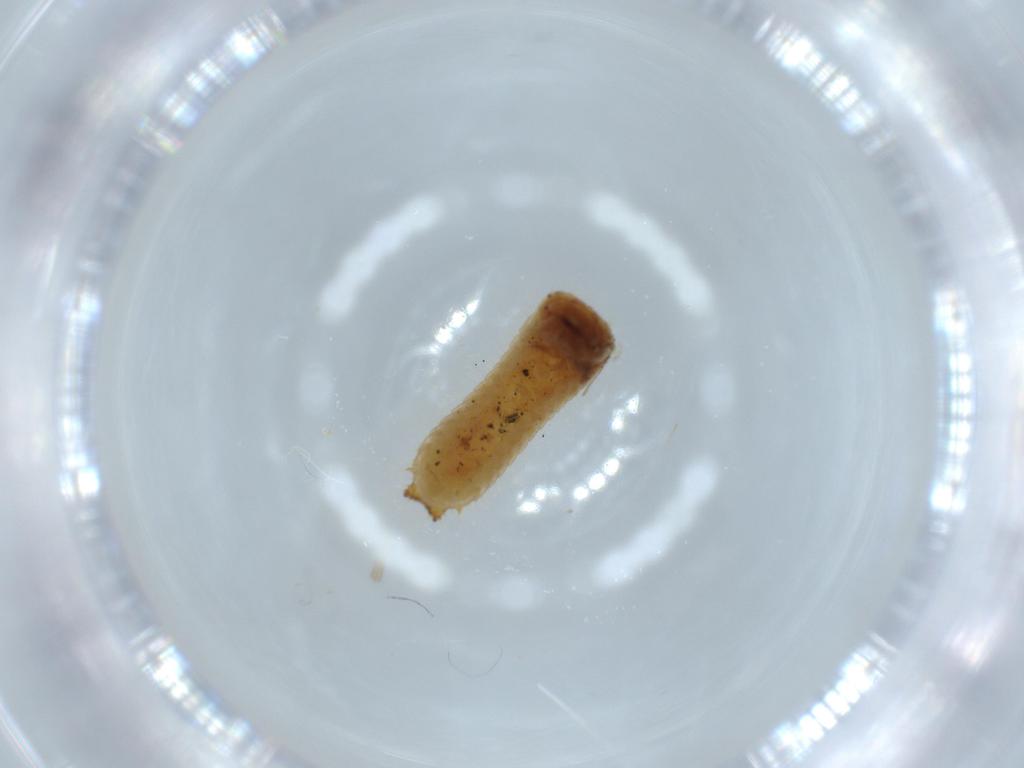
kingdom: Animalia
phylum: Arthropoda
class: Insecta
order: Coleoptera
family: Erotylidae
